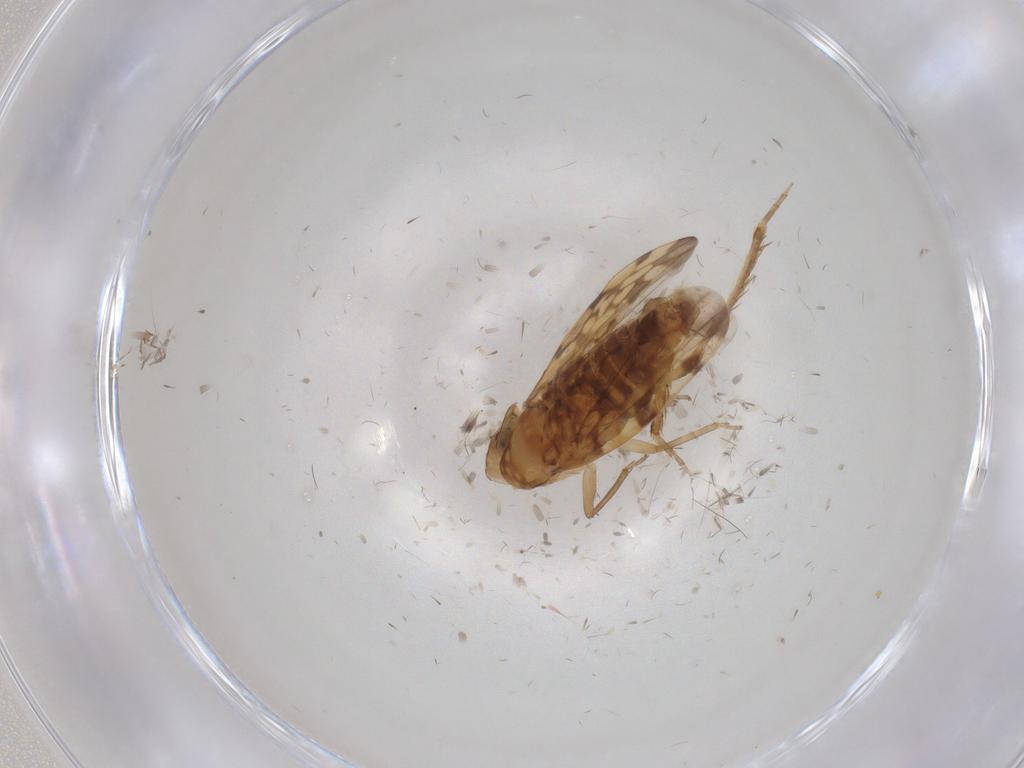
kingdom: Animalia
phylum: Arthropoda
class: Insecta
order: Hemiptera
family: Cicadellidae
